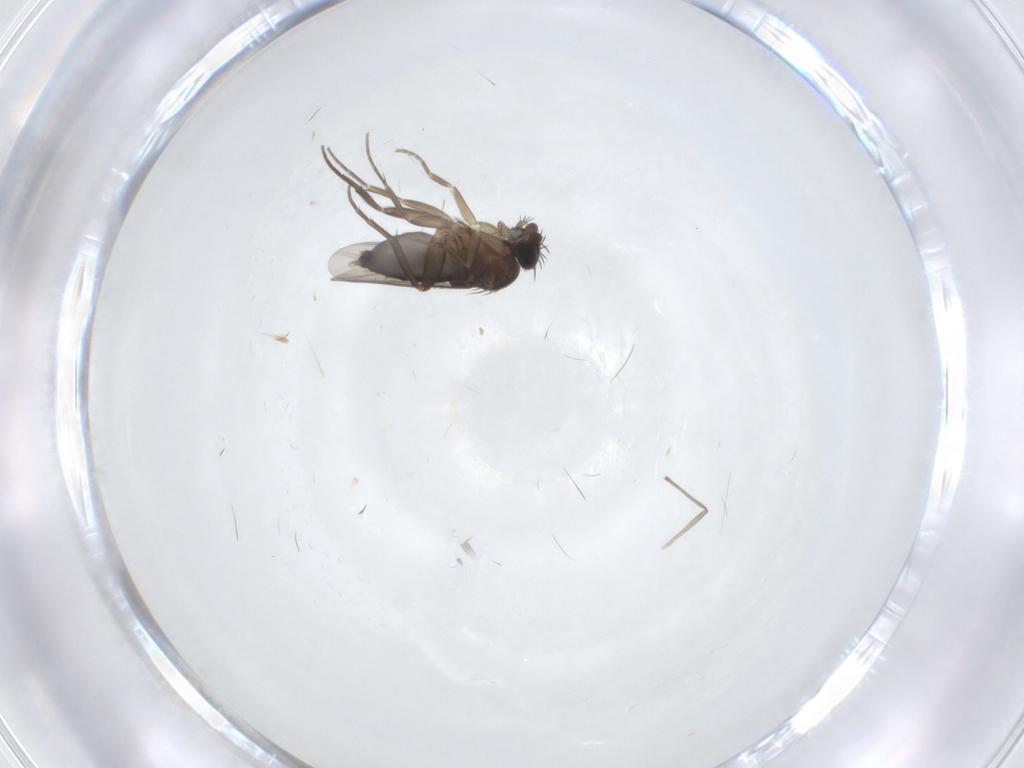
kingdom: Animalia
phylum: Arthropoda
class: Insecta
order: Diptera
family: Phoridae
